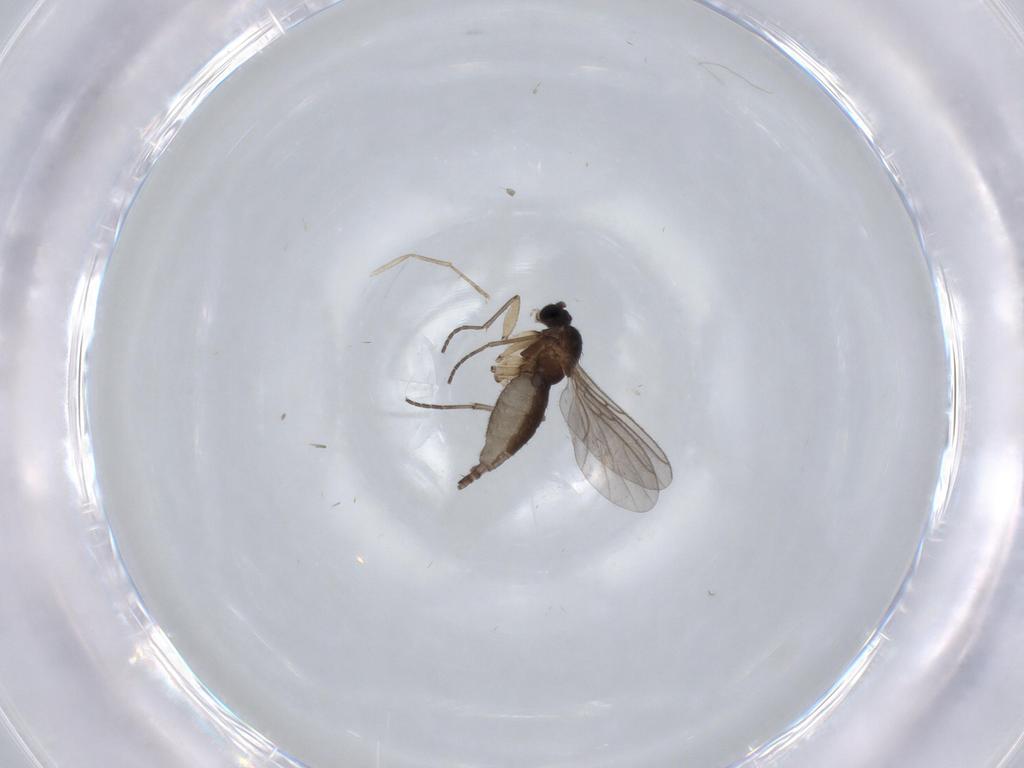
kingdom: Animalia
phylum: Arthropoda
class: Insecta
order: Diptera
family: Sciaridae
